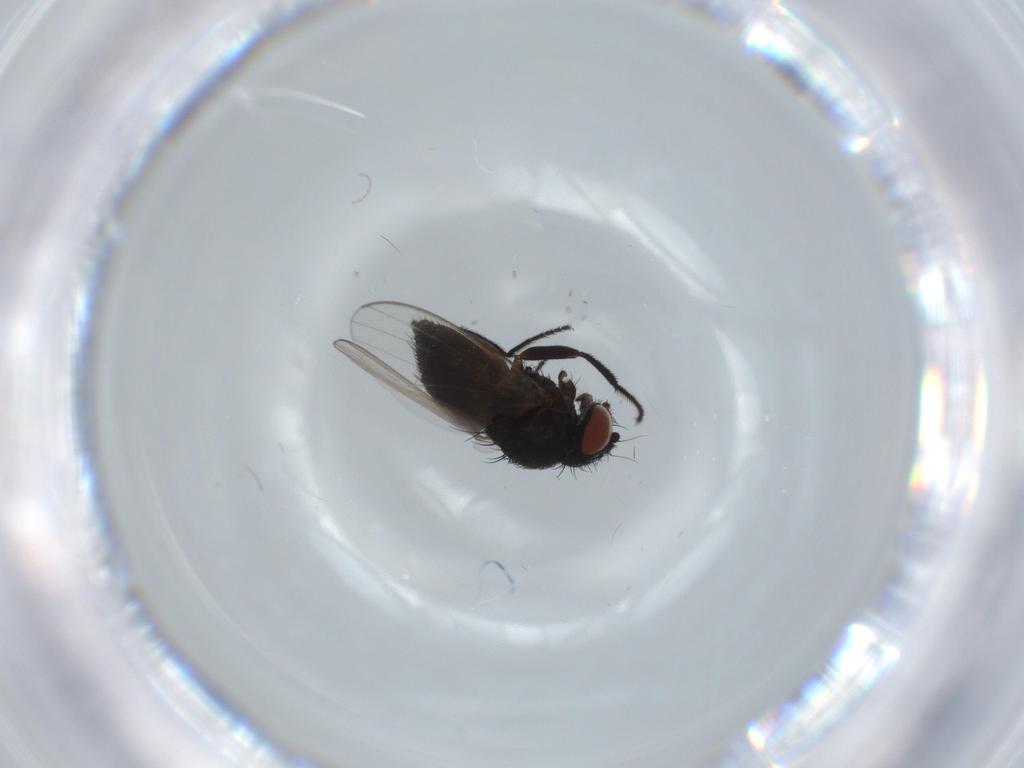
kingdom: Animalia
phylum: Arthropoda
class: Insecta
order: Diptera
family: Milichiidae
